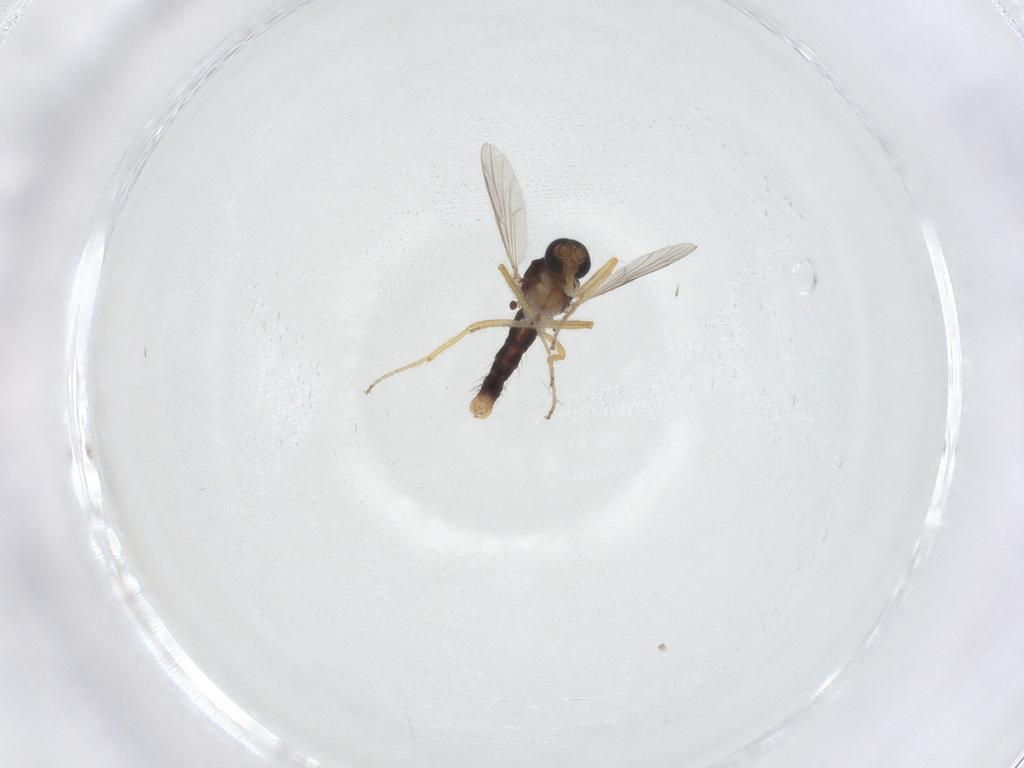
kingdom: Animalia
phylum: Arthropoda
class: Insecta
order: Diptera
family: Ceratopogonidae
